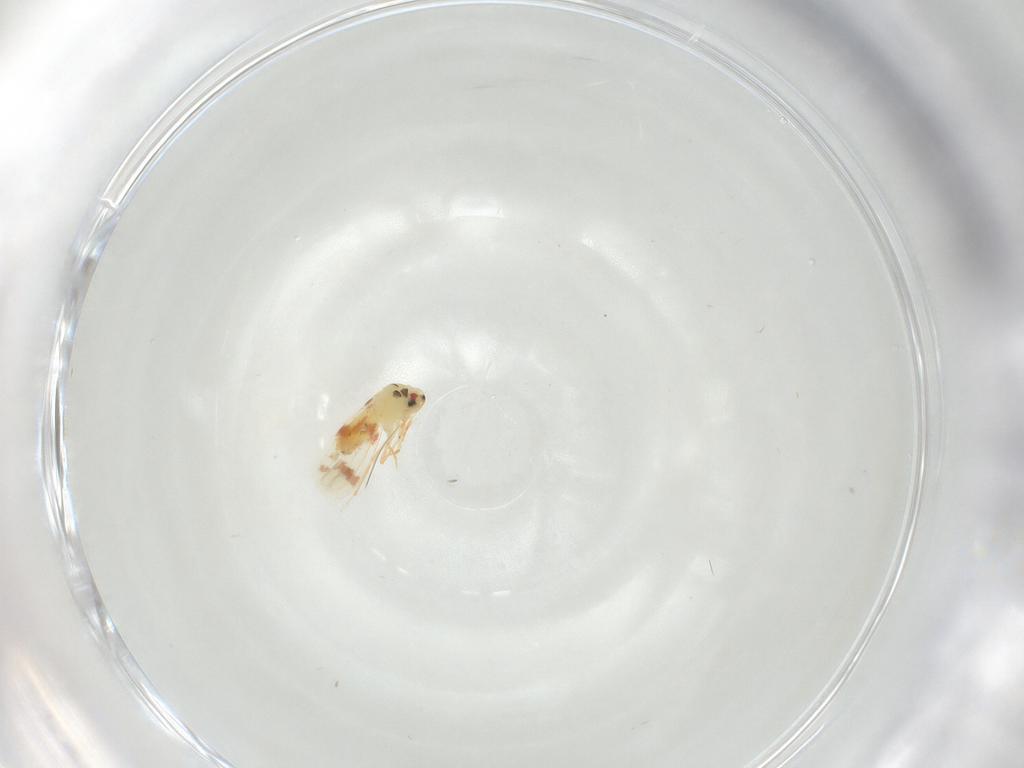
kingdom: Animalia
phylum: Arthropoda
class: Insecta
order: Hemiptera
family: Aleyrodidae
